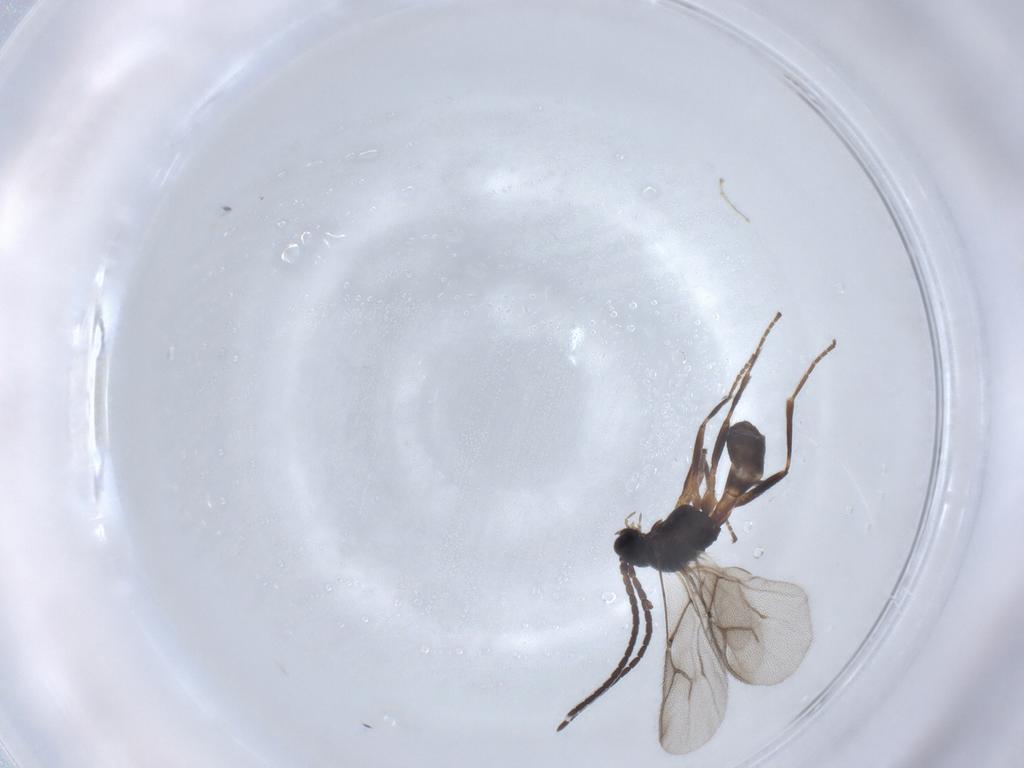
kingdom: Animalia
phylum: Arthropoda
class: Insecta
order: Hymenoptera
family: Braconidae
